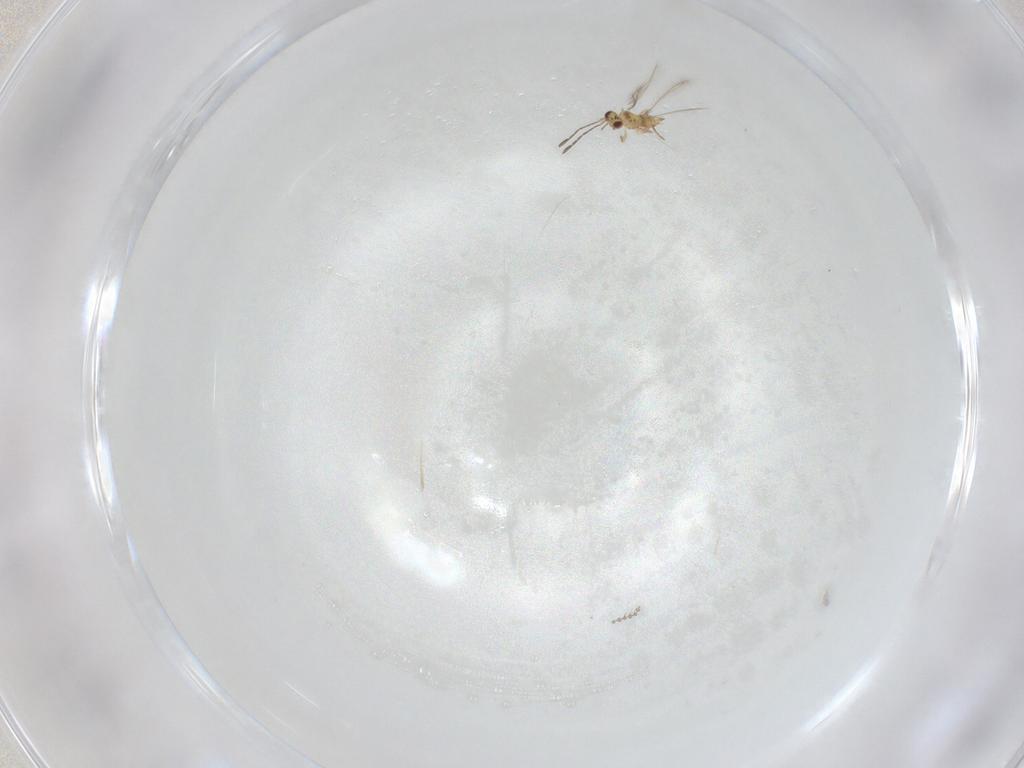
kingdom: Animalia
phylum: Arthropoda
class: Insecta
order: Hymenoptera
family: Mymaridae
